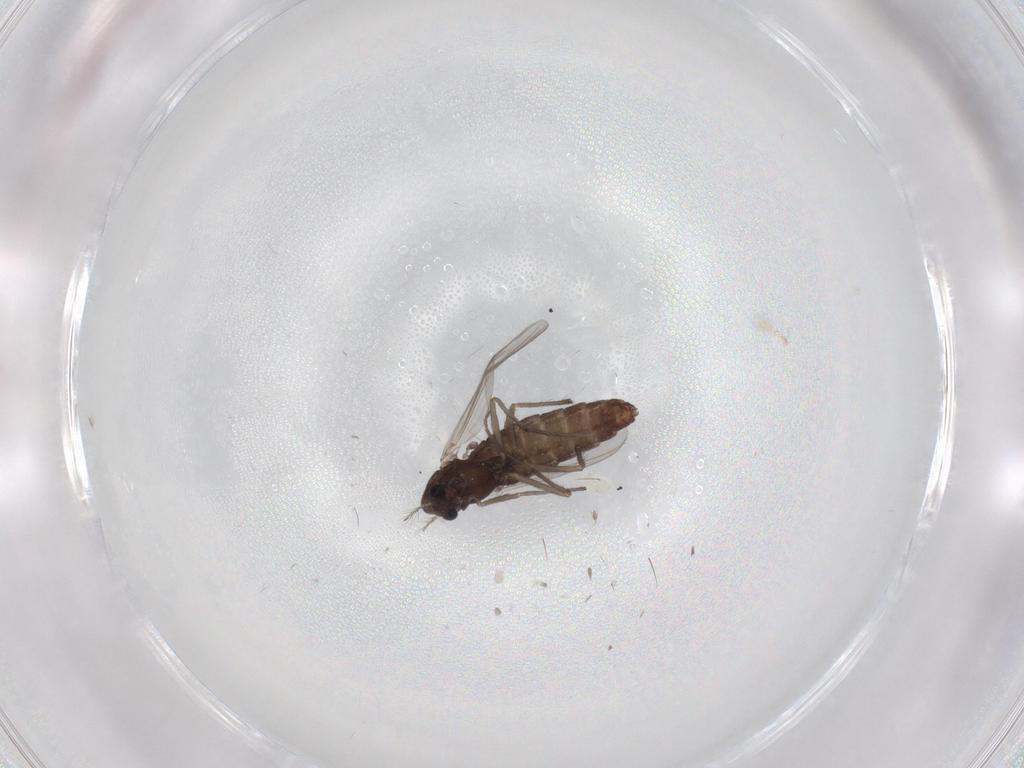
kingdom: Animalia
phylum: Arthropoda
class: Insecta
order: Diptera
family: Chironomidae
